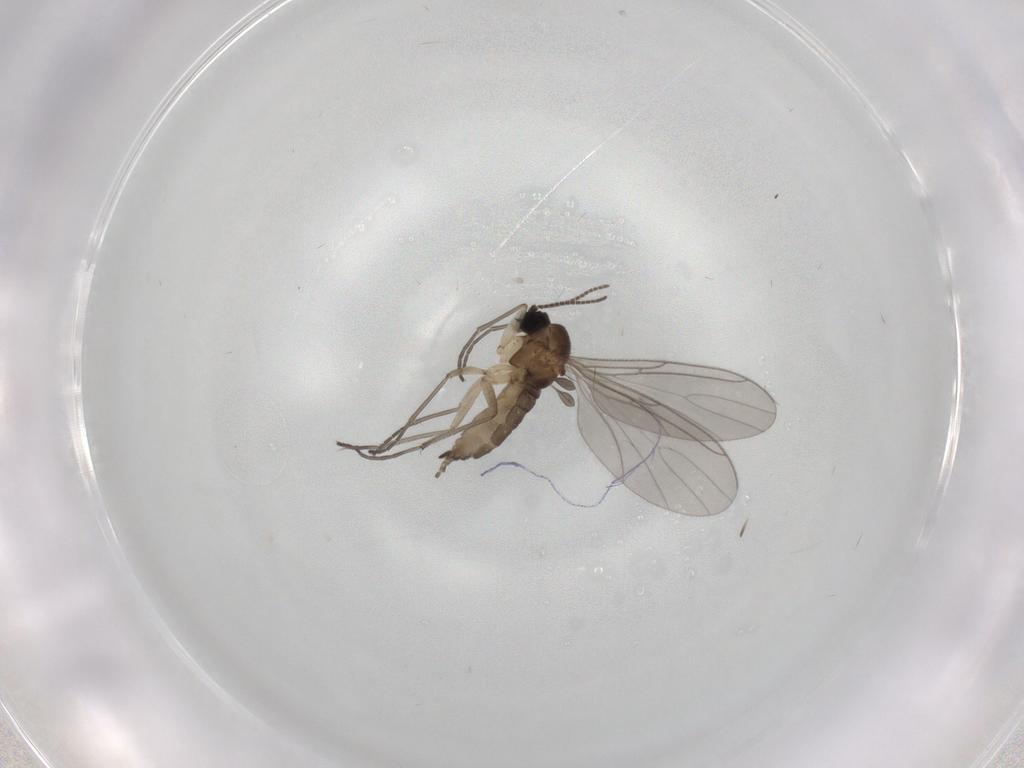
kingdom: Animalia
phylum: Arthropoda
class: Insecta
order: Diptera
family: Sciaridae
